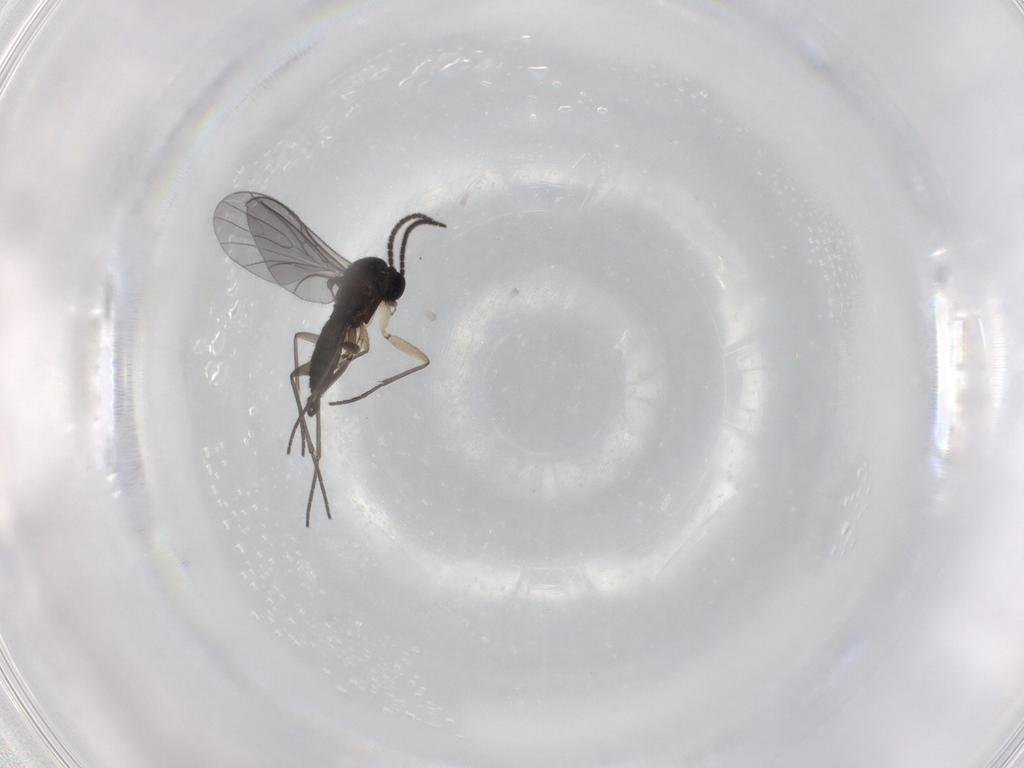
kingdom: Animalia
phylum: Arthropoda
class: Insecta
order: Diptera
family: Sciaridae
